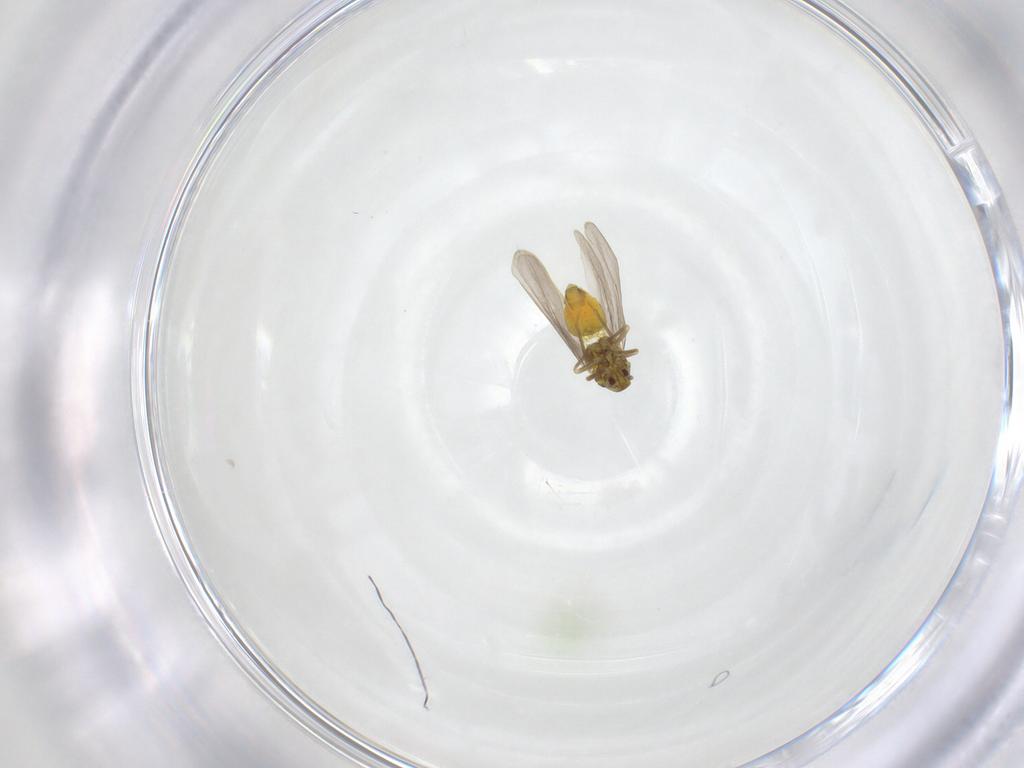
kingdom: Animalia
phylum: Arthropoda
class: Insecta
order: Hemiptera
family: Aleyrodidae
